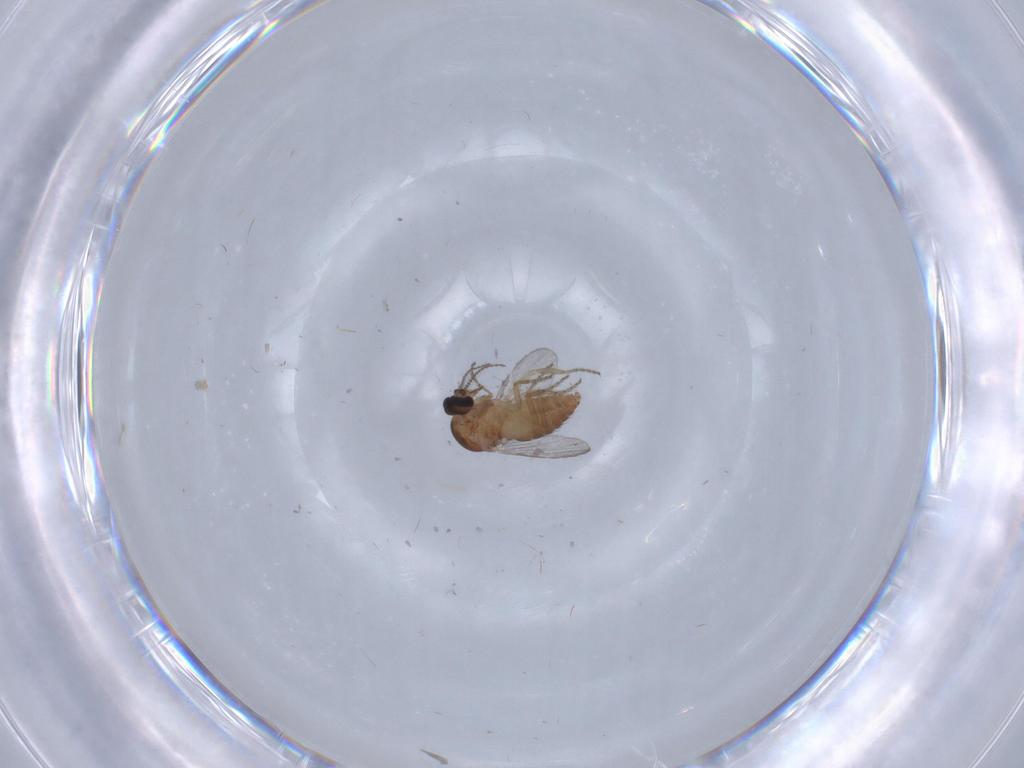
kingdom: Animalia
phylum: Arthropoda
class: Insecta
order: Diptera
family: Ceratopogonidae
